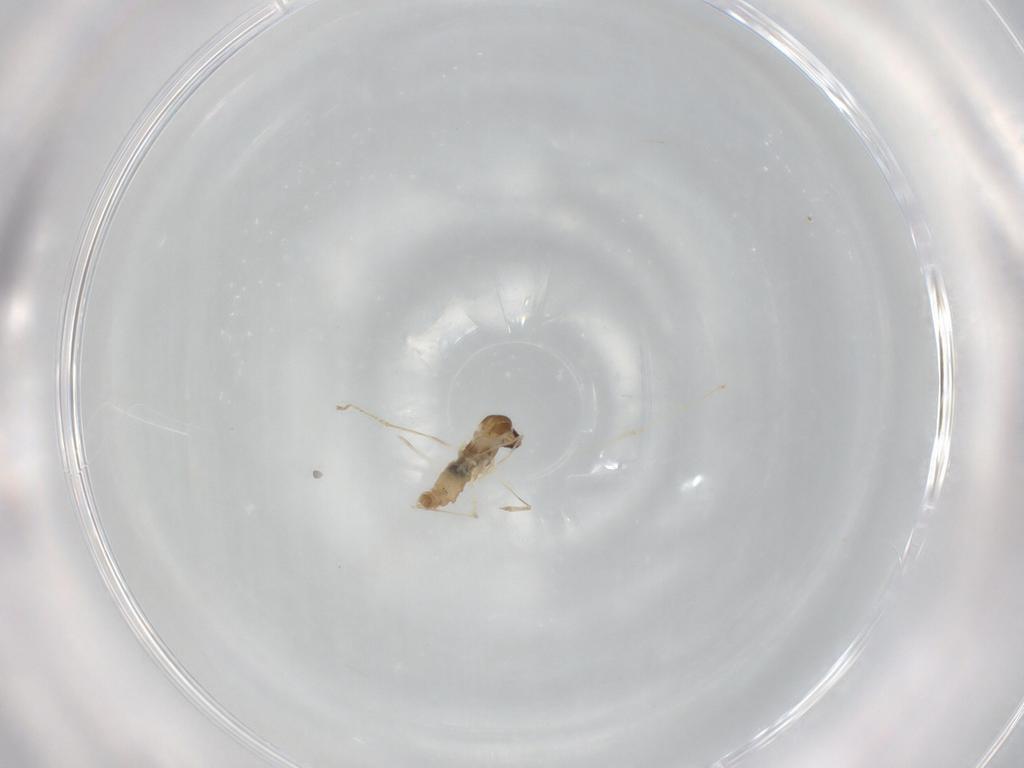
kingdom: Animalia
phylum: Arthropoda
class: Insecta
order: Diptera
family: Cecidomyiidae
